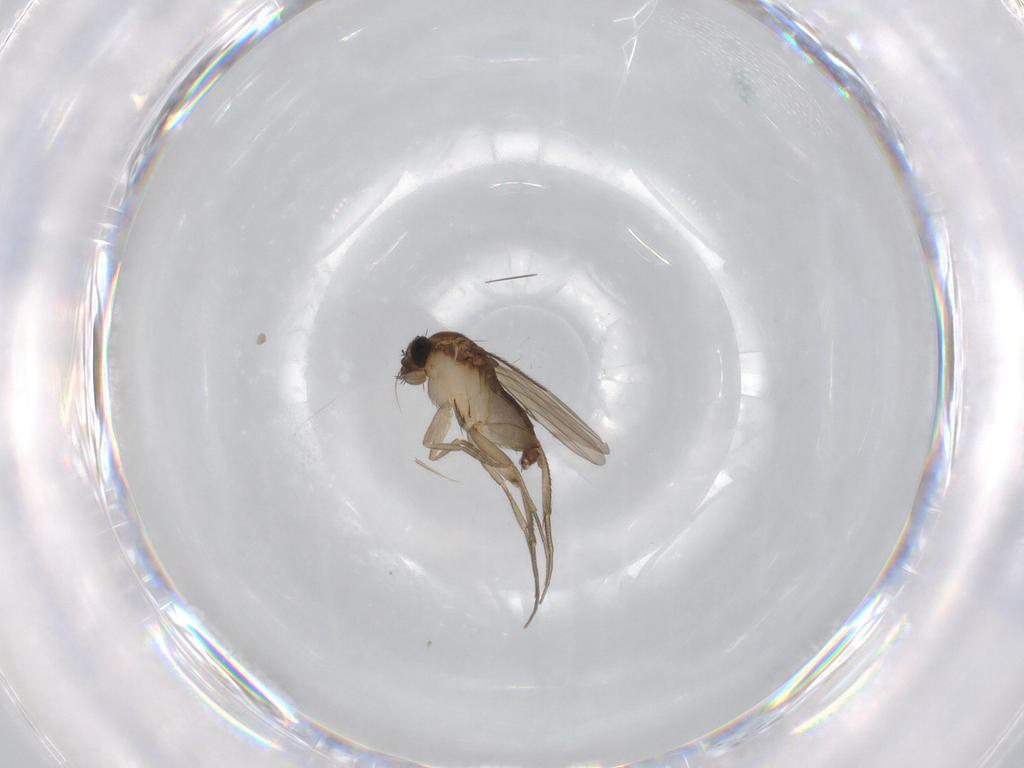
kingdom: Animalia
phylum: Arthropoda
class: Insecta
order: Diptera
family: Phoridae
